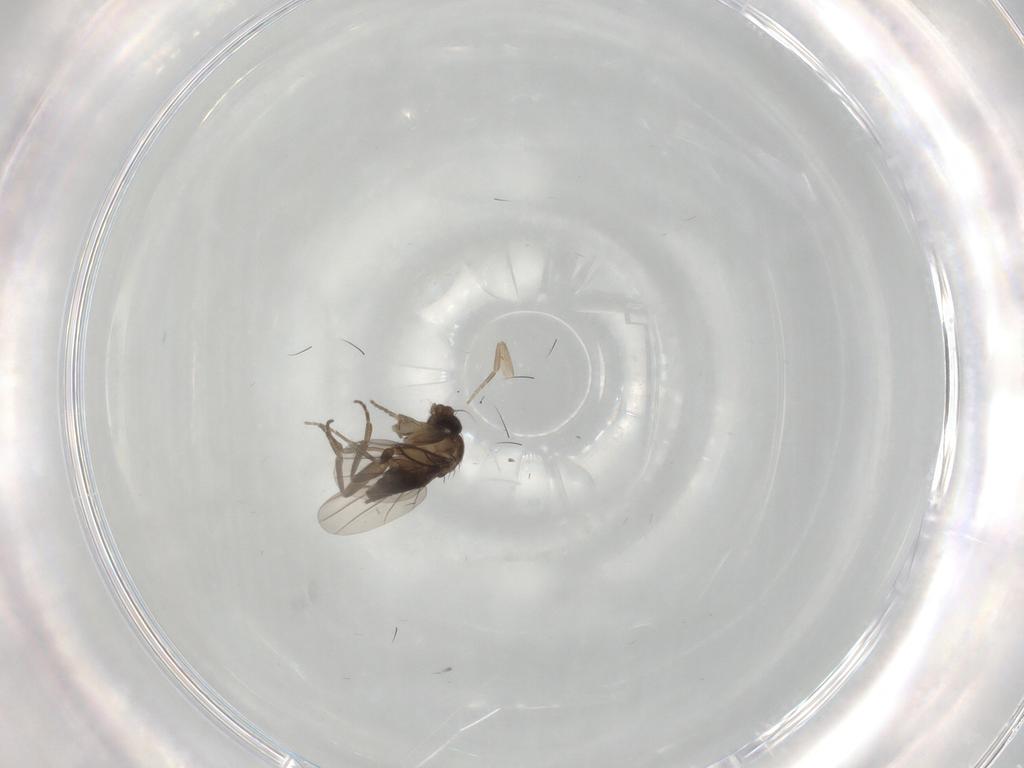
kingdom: Animalia
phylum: Arthropoda
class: Insecta
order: Diptera
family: Phoridae
